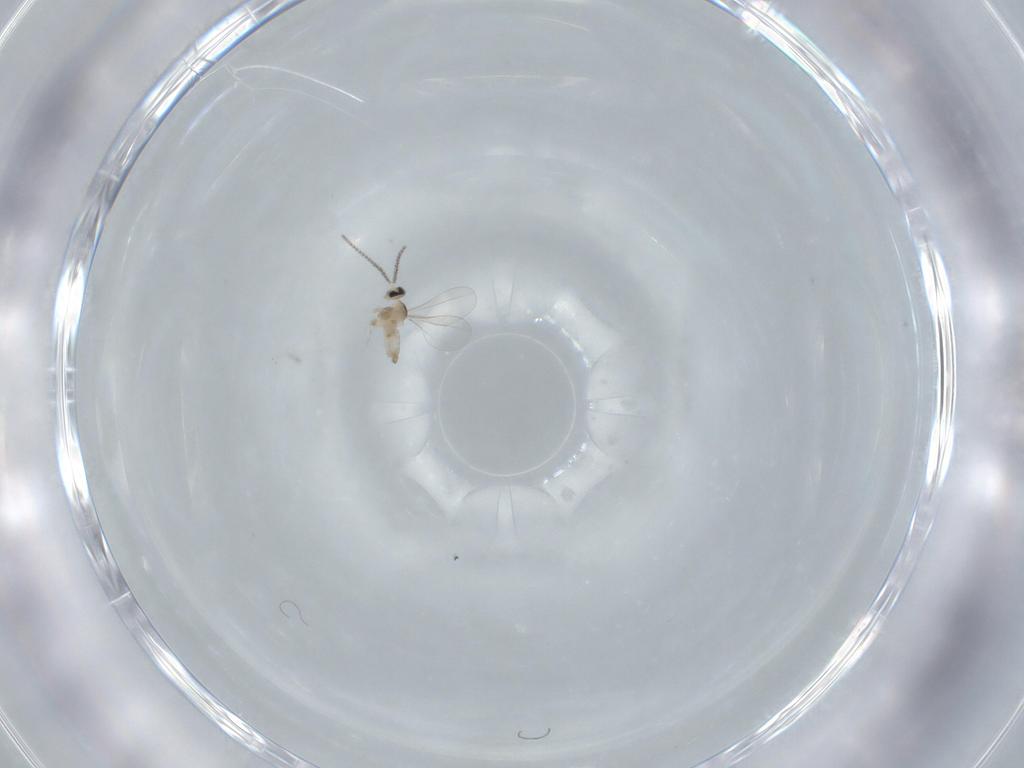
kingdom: Animalia
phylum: Arthropoda
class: Insecta
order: Diptera
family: Cecidomyiidae
